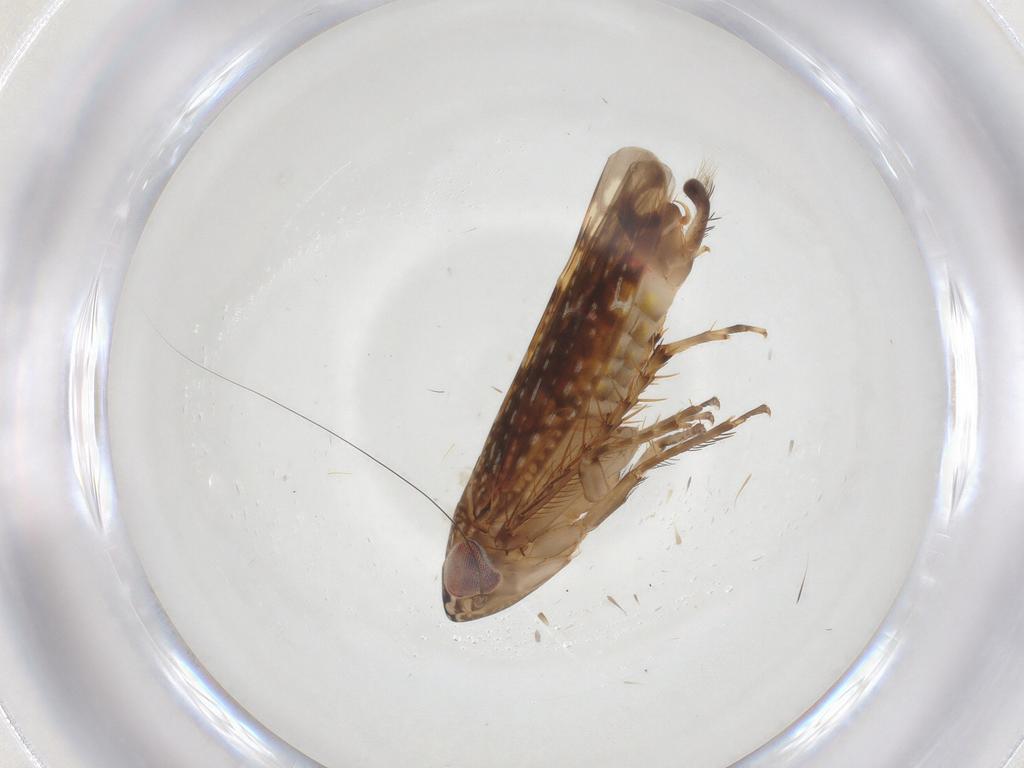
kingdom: Animalia
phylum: Arthropoda
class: Insecta
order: Hemiptera
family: Cicadellidae
